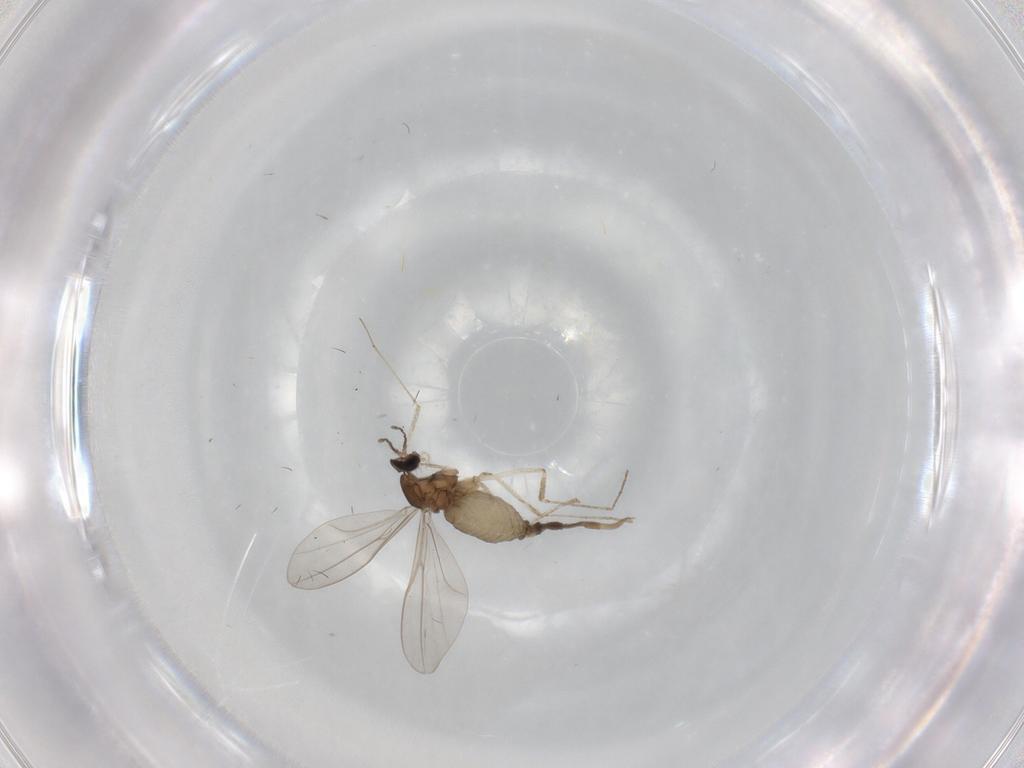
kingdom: Animalia
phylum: Arthropoda
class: Insecta
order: Diptera
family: Cecidomyiidae
